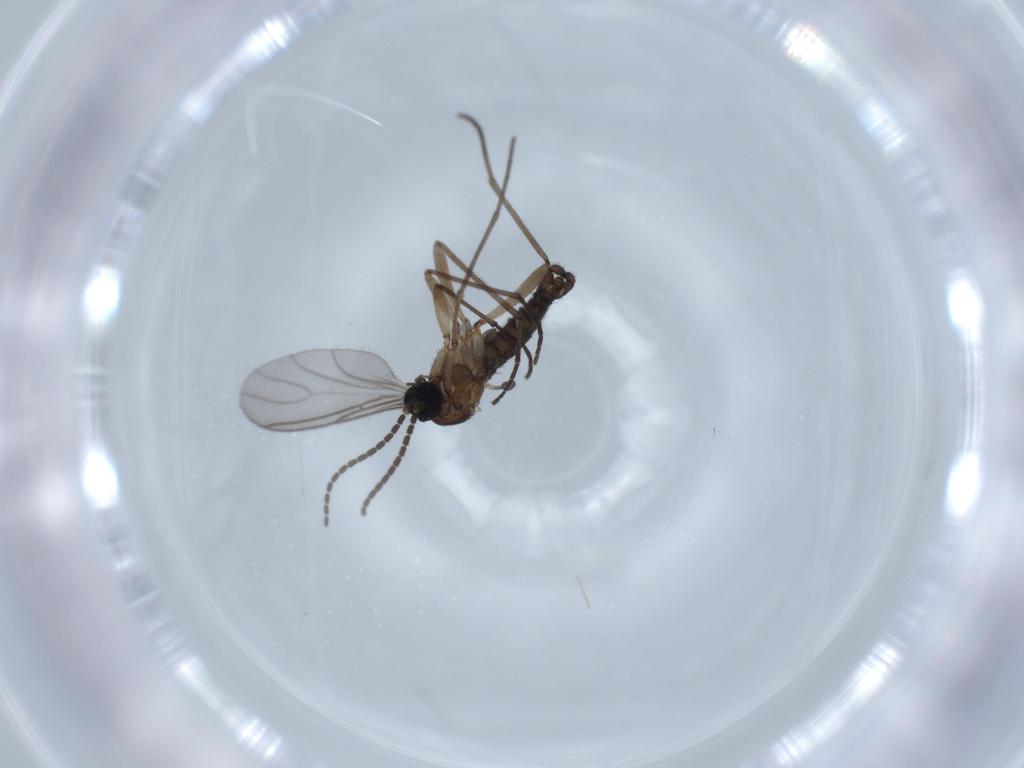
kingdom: Animalia
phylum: Arthropoda
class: Insecta
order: Diptera
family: Sciaridae
